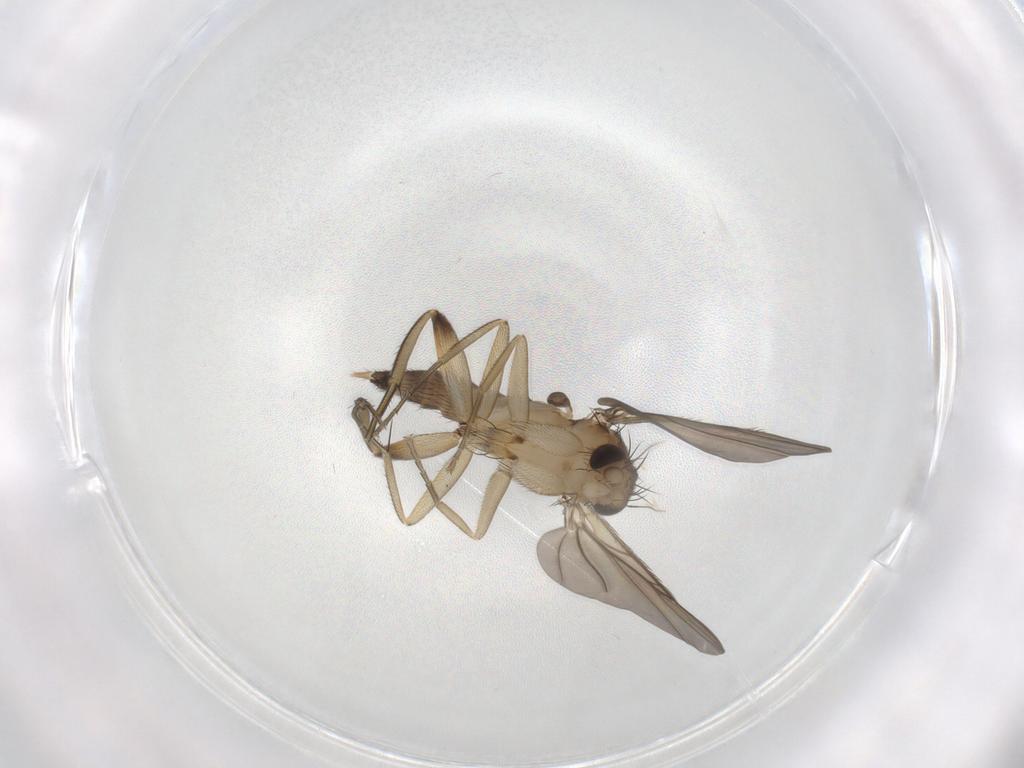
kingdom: Animalia
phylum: Arthropoda
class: Insecta
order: Diptera
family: Phoridae
